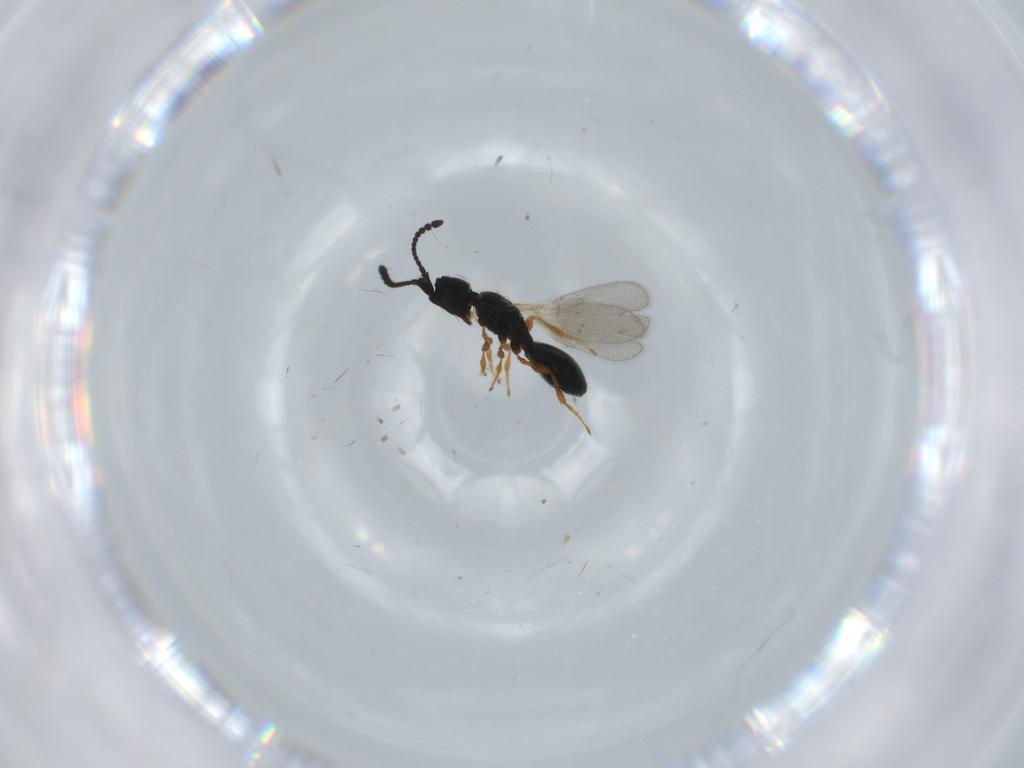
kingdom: Animalia
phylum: Arthropoda
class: Insecta
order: Hymenoptera
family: Diapriidae
